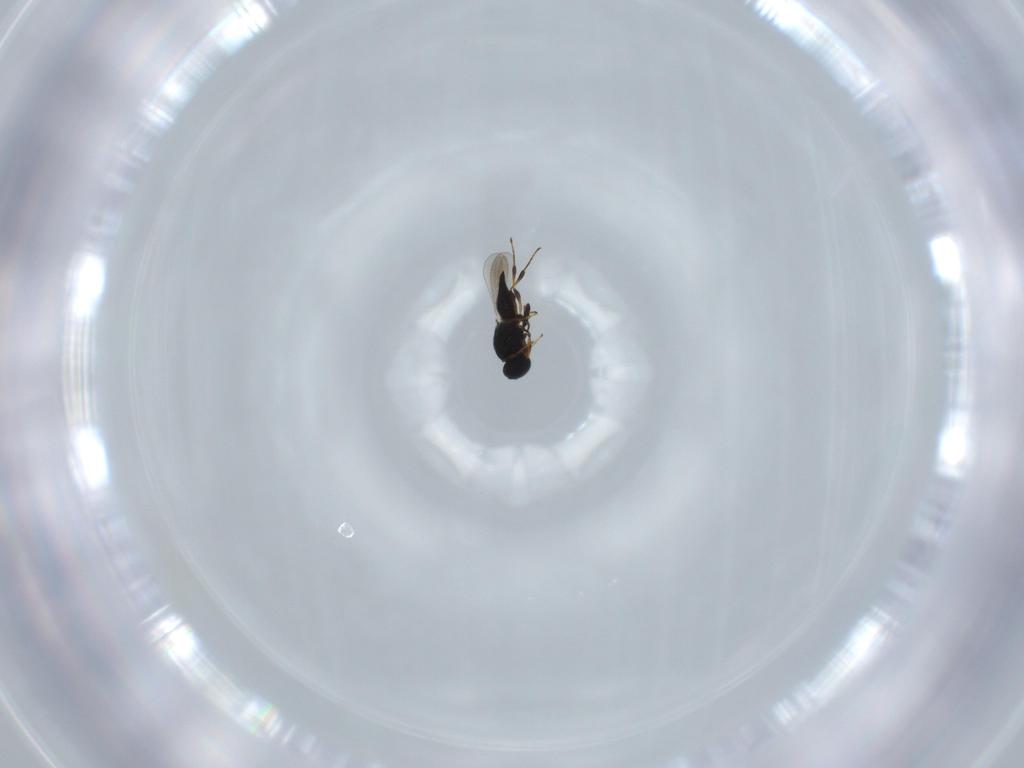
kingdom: Animalia
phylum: Arthropoda
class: Insecta
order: Hymenoptera
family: Platygastridae
